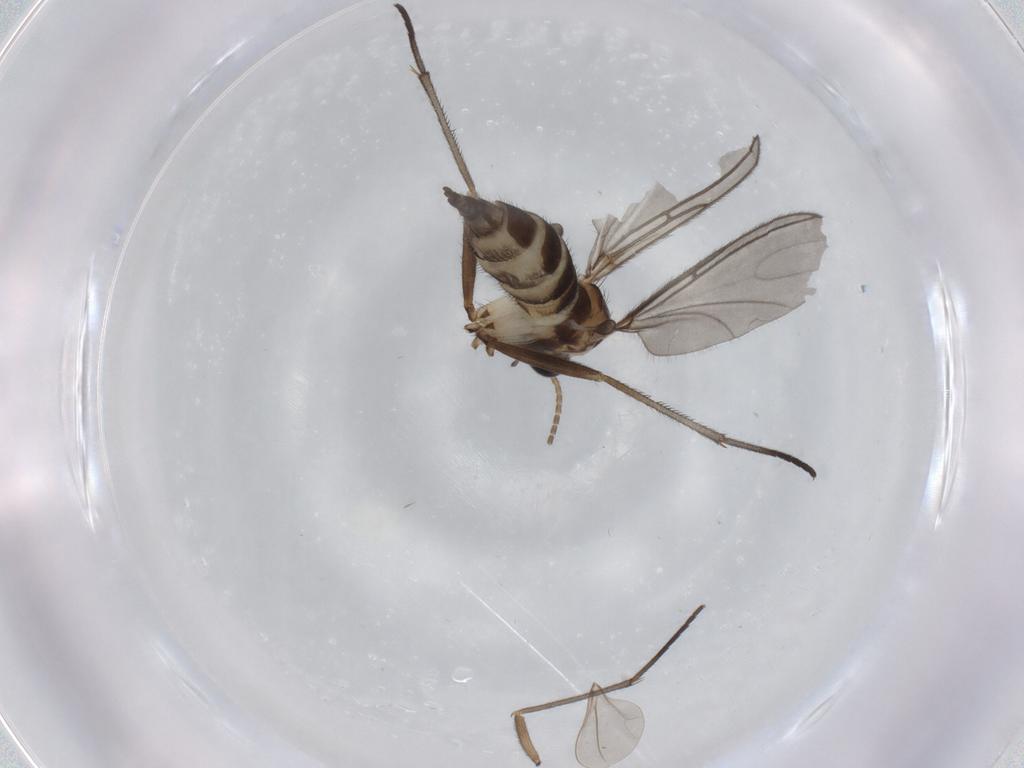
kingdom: Animalia
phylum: Arthropoda
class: Insecta
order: Diptera
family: Sciaridae
